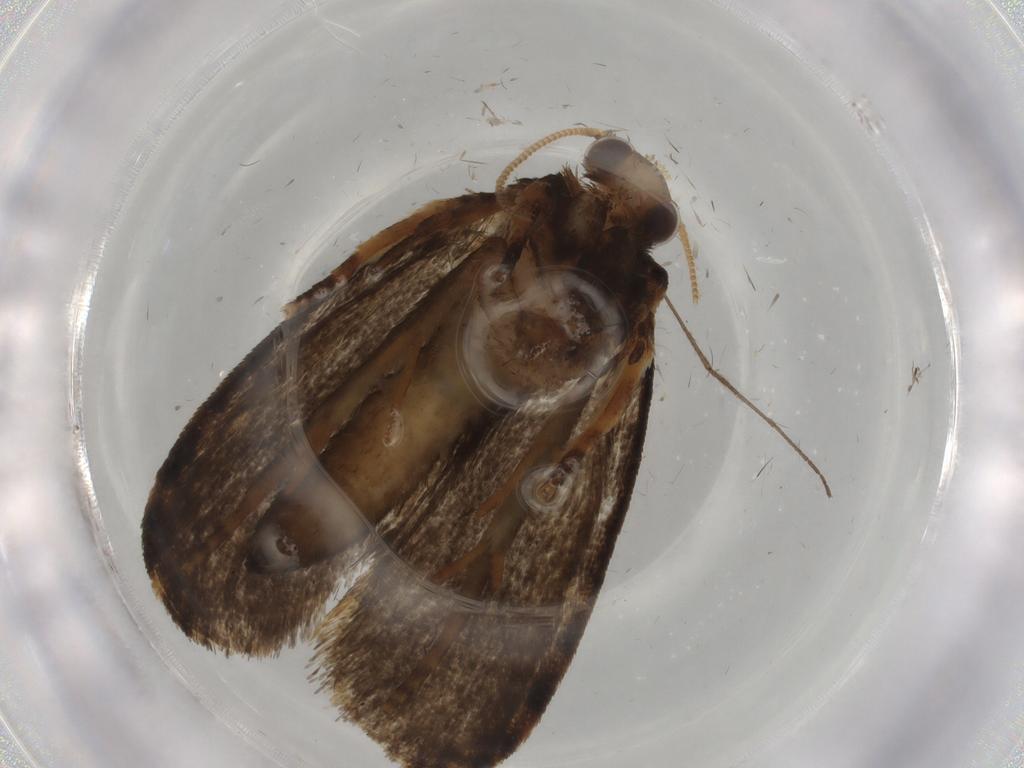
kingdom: Animalia
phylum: Arthropoda
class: Insecta
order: Lepidoptera
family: Tineidae
